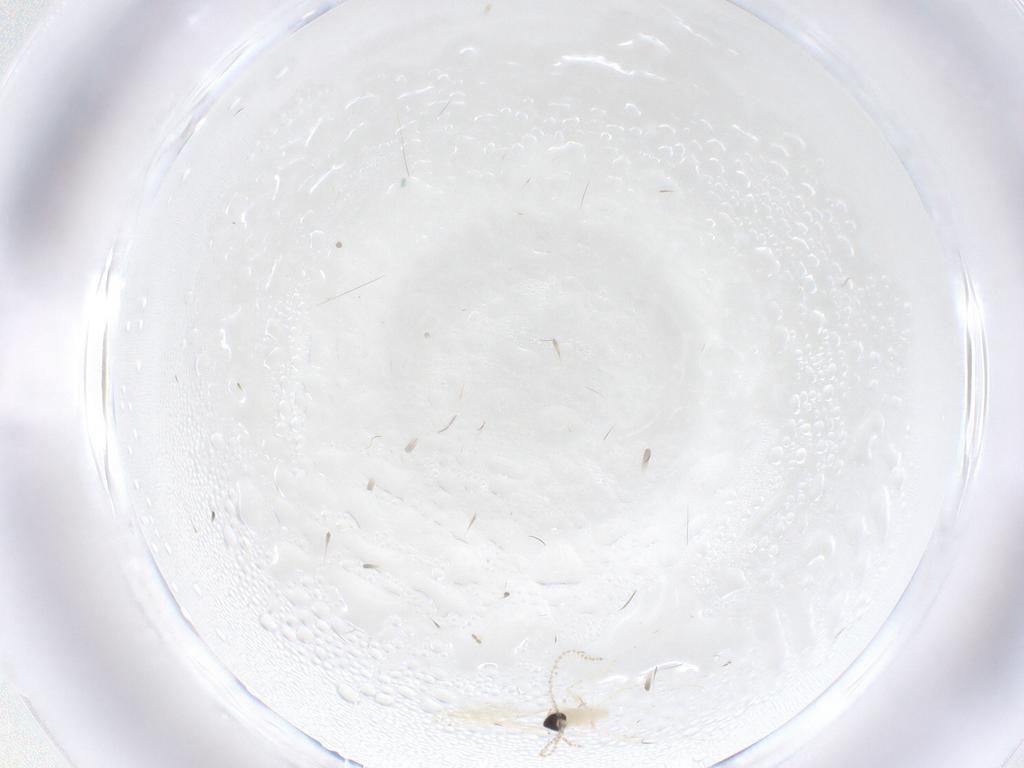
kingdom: Animalia
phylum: Arthropoda
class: Insecta
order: Diptera
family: Cecidomyiidae
